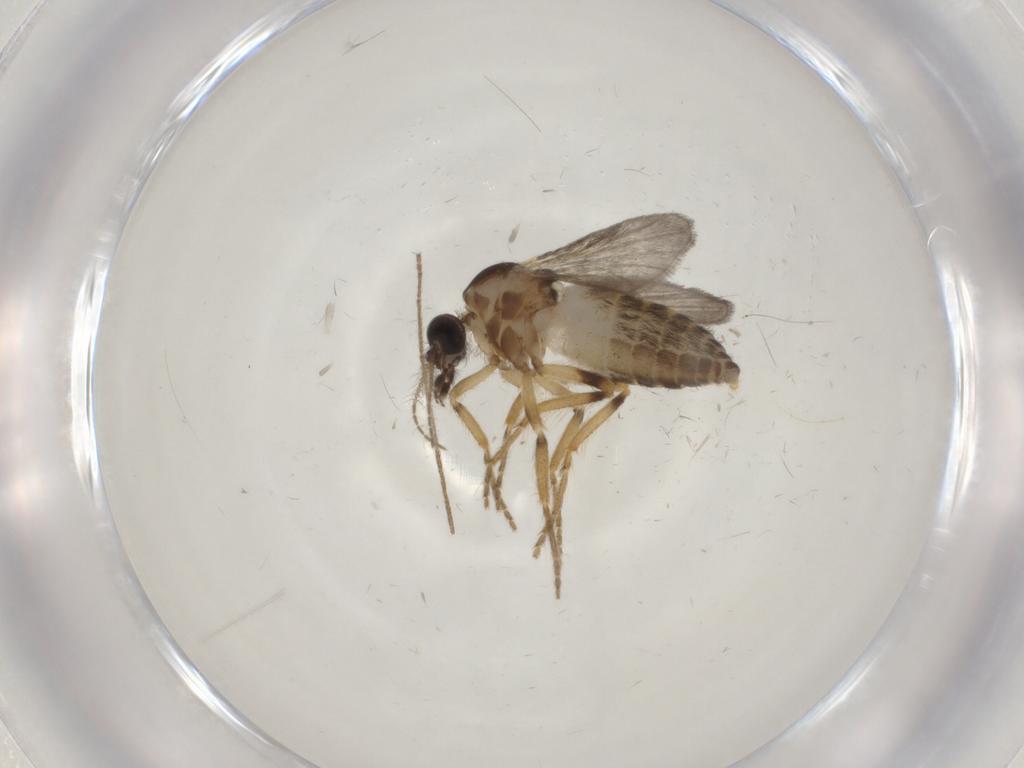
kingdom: Animalia
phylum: Arthropoda
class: Insecta
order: Diptera
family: Ceratopogonidae
